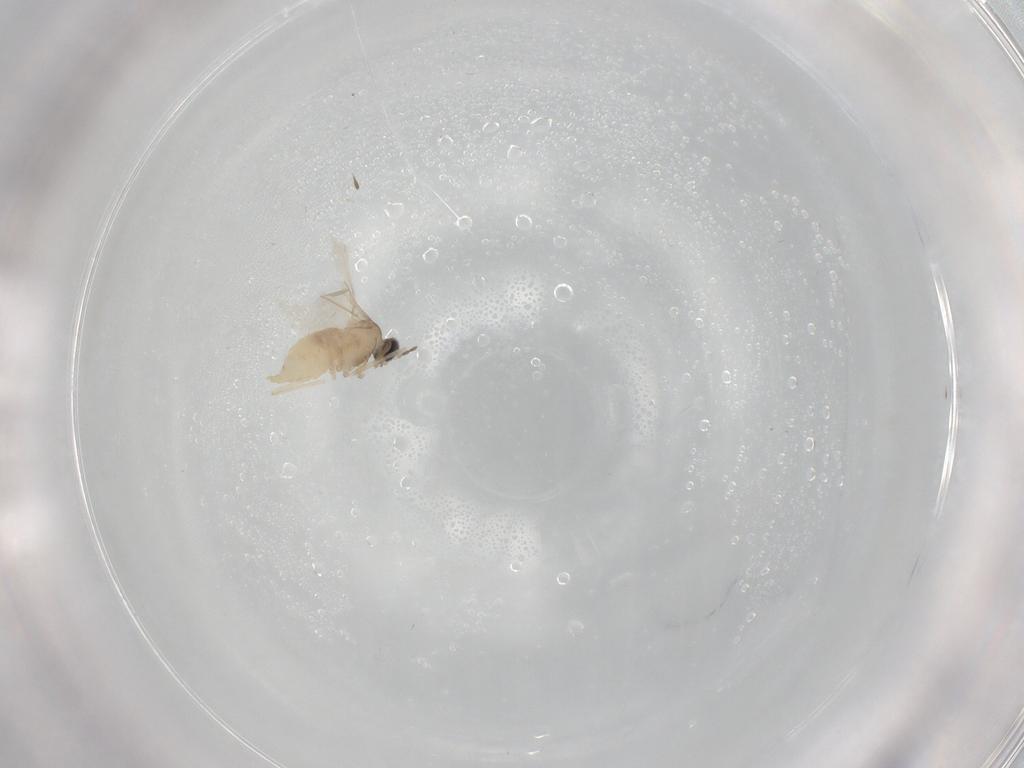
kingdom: Animalia
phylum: Arthropoda
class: Insecta
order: Diptera
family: Cecidomyiidae
